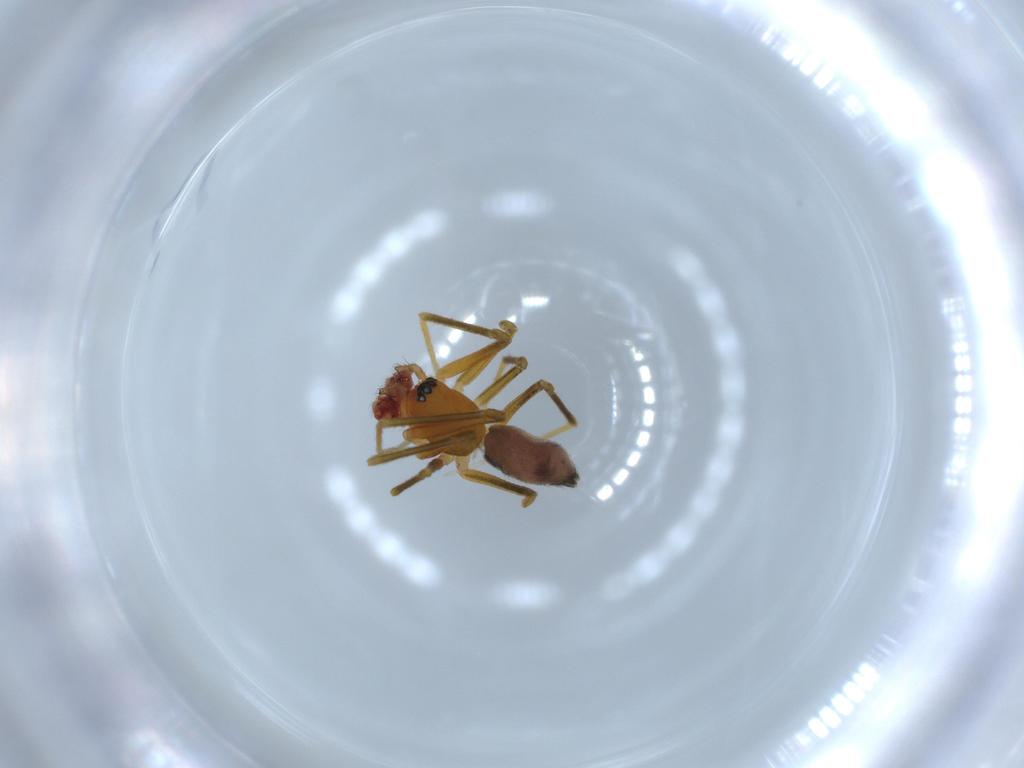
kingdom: Animalia
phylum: Arthropoda
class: Arachnida
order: Araneae
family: Linyphiidae
